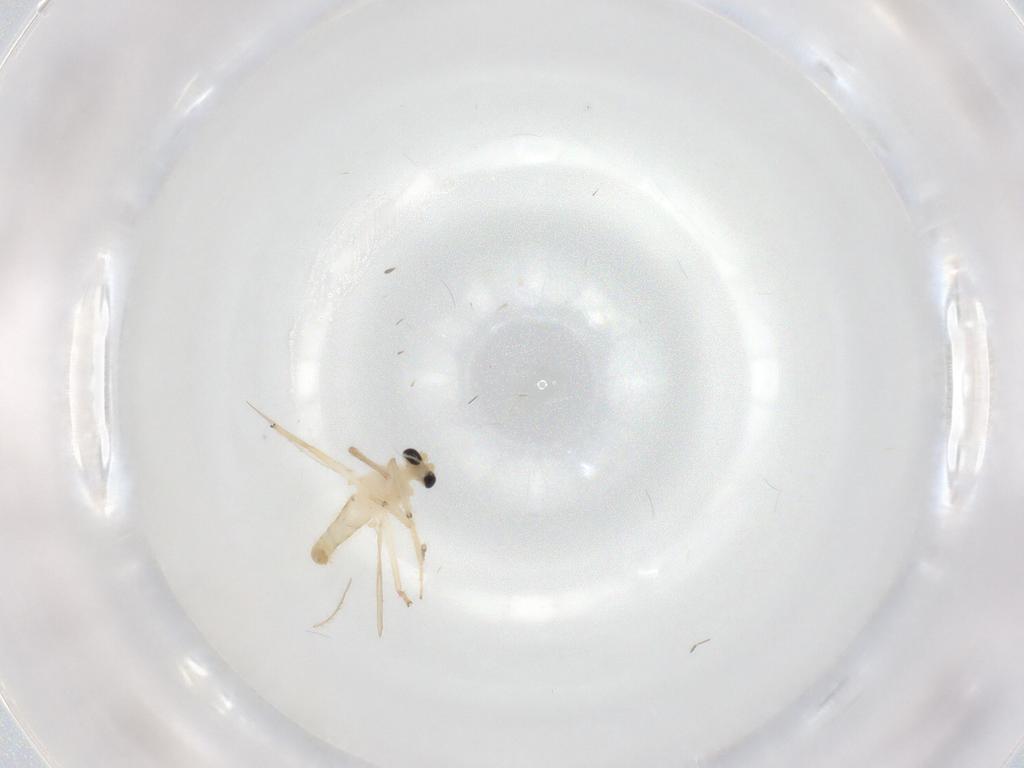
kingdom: Animalia
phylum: Arthropoda
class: Insecta
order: Diptera
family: Chironomidae
